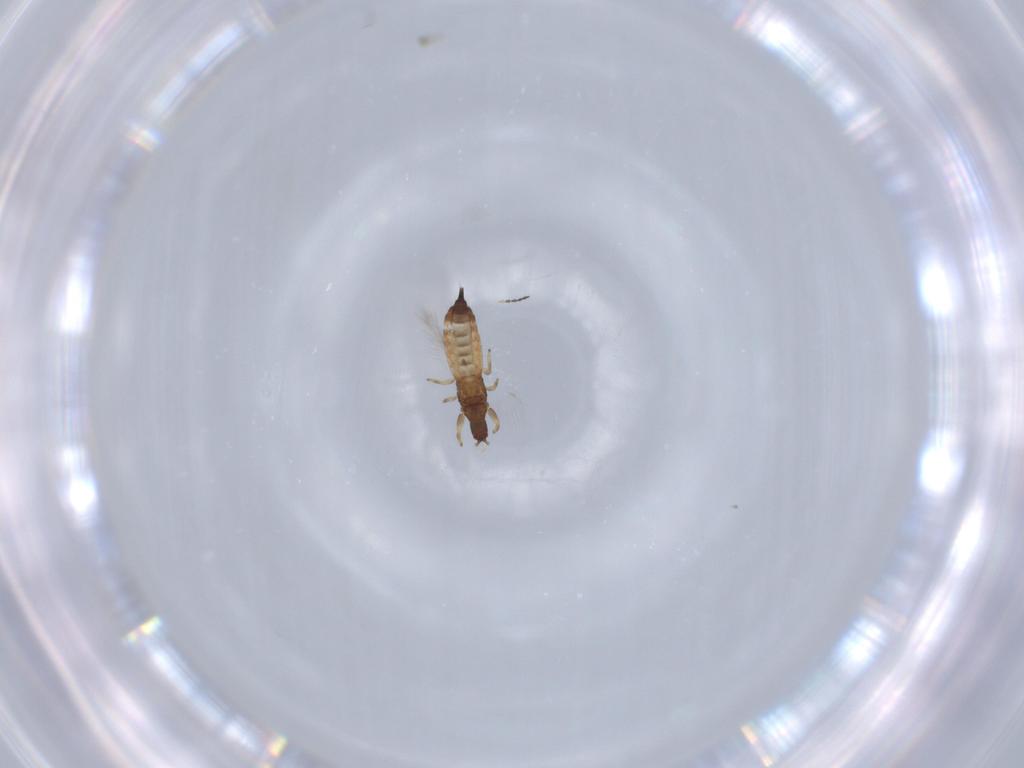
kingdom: Animalia
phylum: Arthropoda
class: Insecta
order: Thysanoptera
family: Phlaeothripidae
